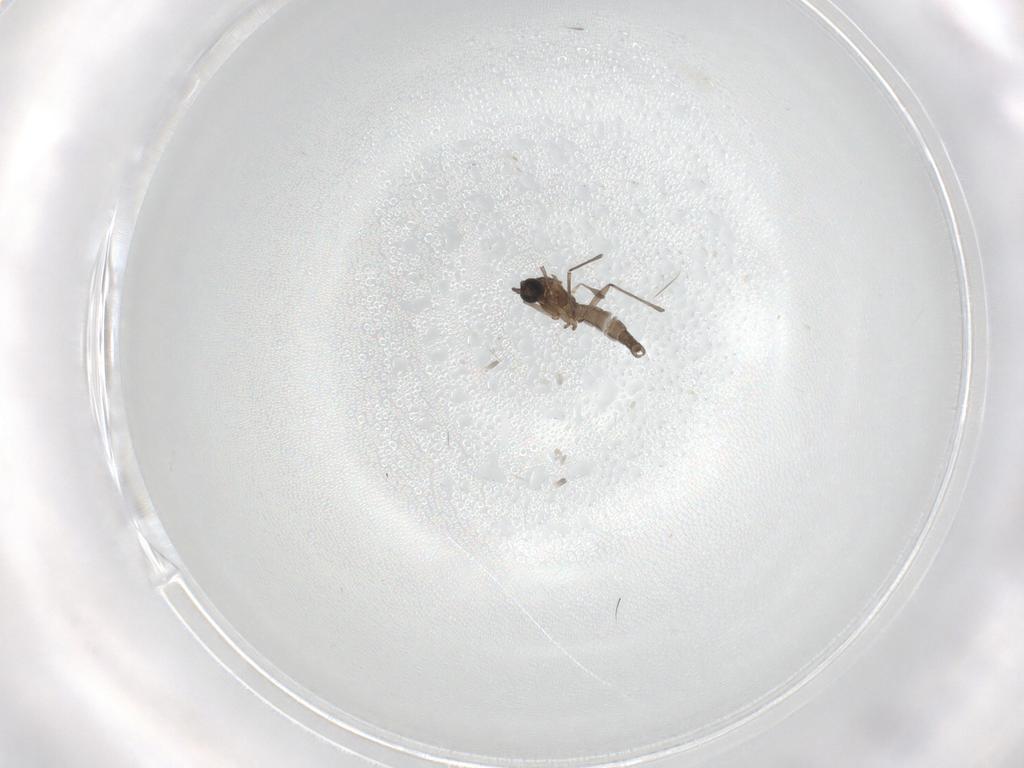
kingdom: Animalia
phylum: Arthropoda
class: Insecta
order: Diptera
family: Sciaridae
